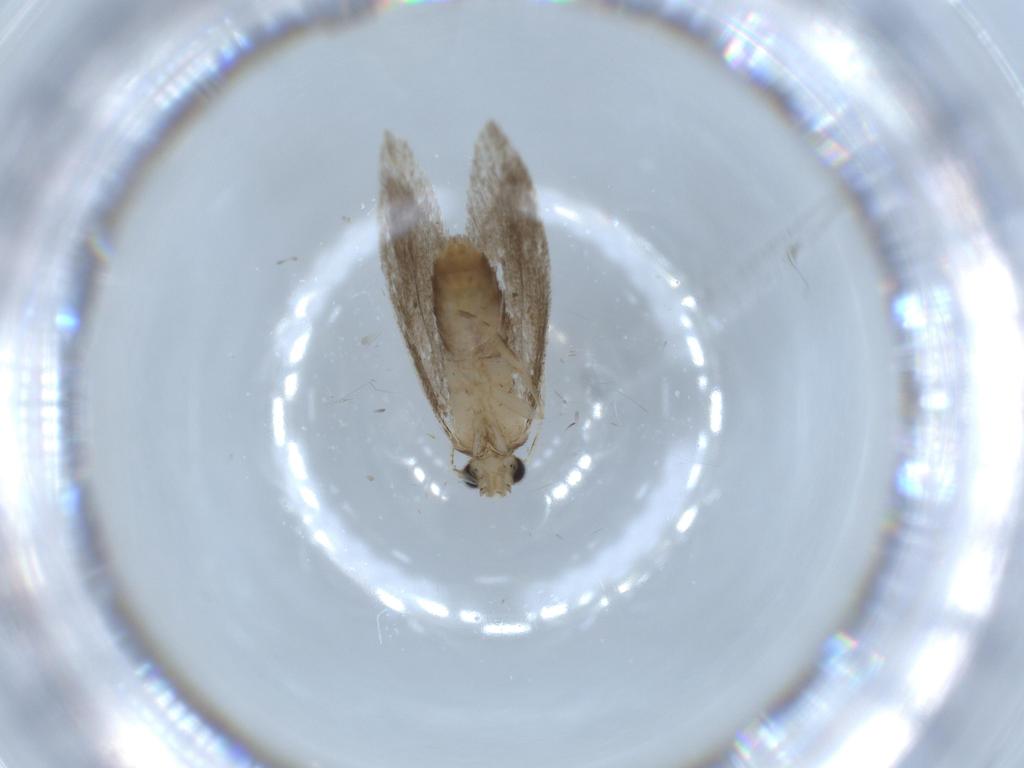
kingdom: Animalia
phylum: Arthropoda
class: Insecta
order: Lepidoptera
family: Tineidae
